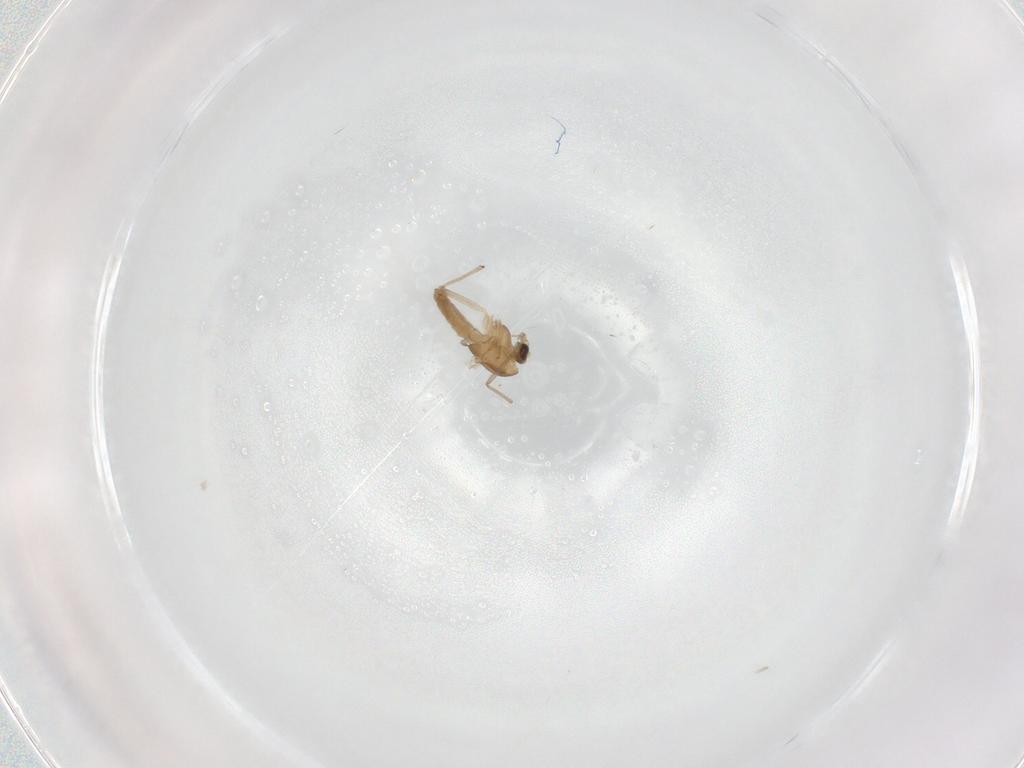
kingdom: Animalia
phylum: Arthropoda
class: Insecta
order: Diptera
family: Chironomidae
